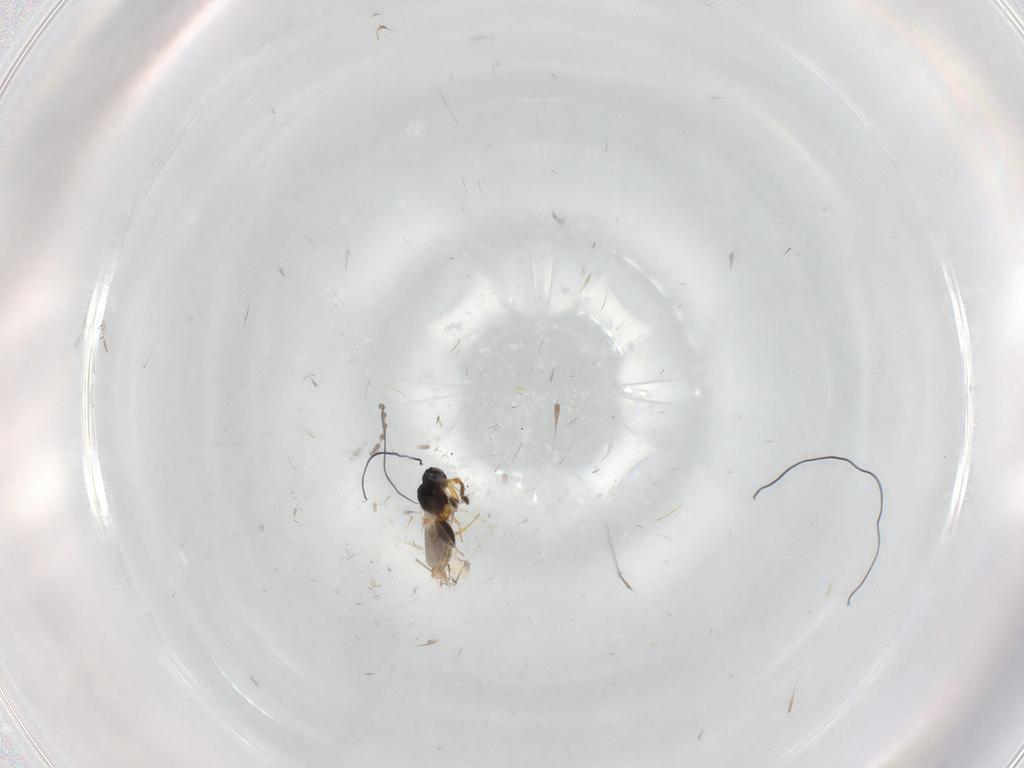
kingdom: Animalia
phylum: Arthropoda
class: Insecta
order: Hymenoptera
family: Platygastridae
